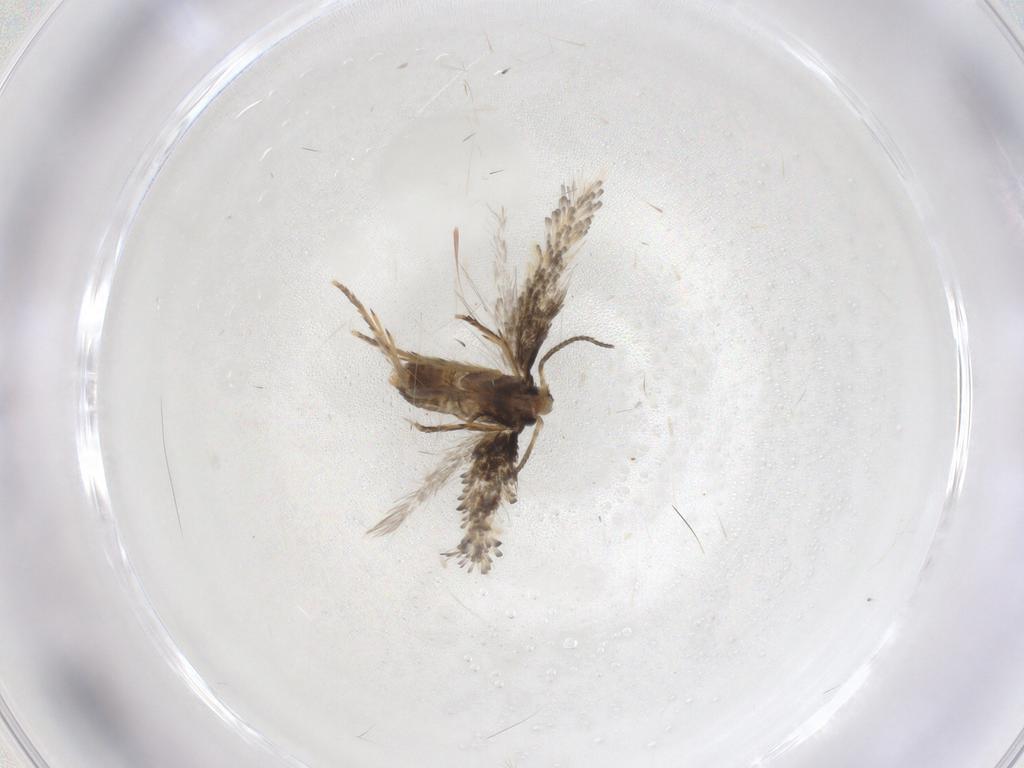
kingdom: Animalia
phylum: Arthropoda
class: Insecta
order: Lepidoptera
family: Nepticulidae
